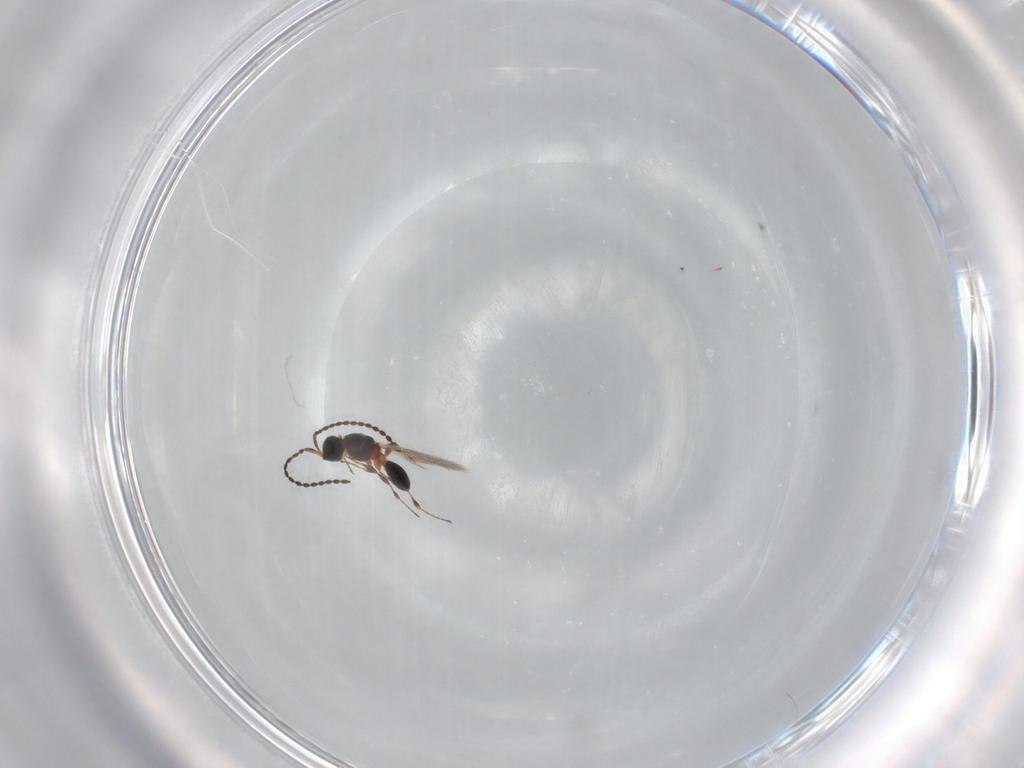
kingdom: Animalia
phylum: Arthropoda
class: Insecta
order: Hymenoptera
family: Diapriidae
